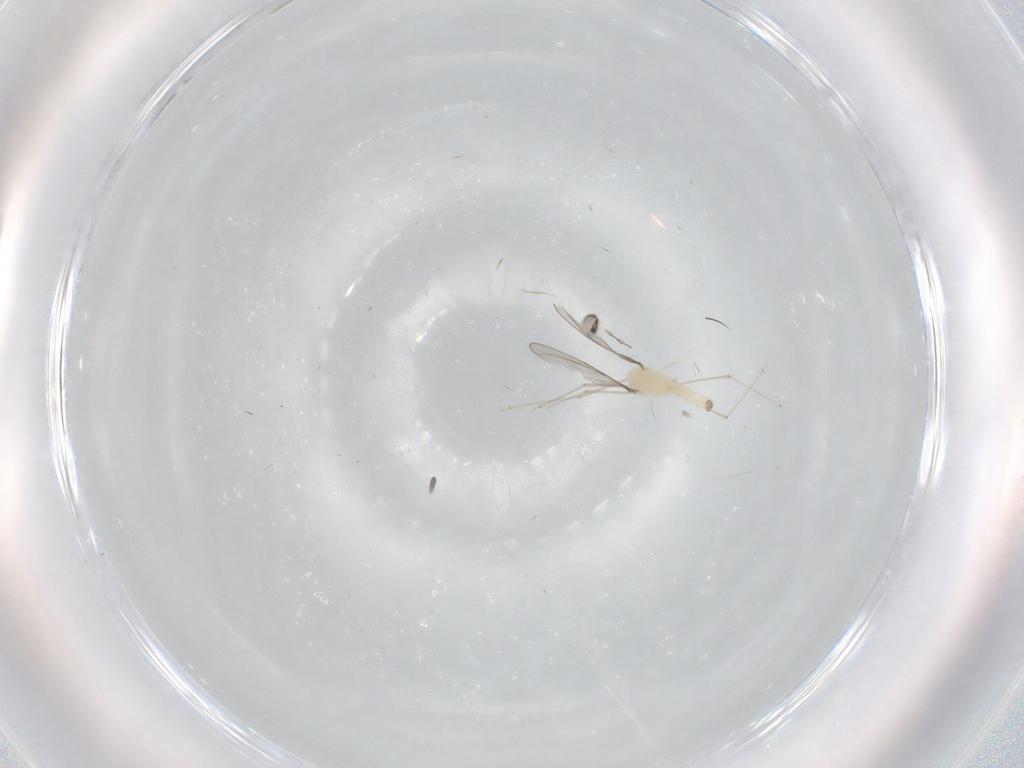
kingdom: Animalia
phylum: Arthropoda
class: Insecta
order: Diptera
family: Cecidomyiidae
